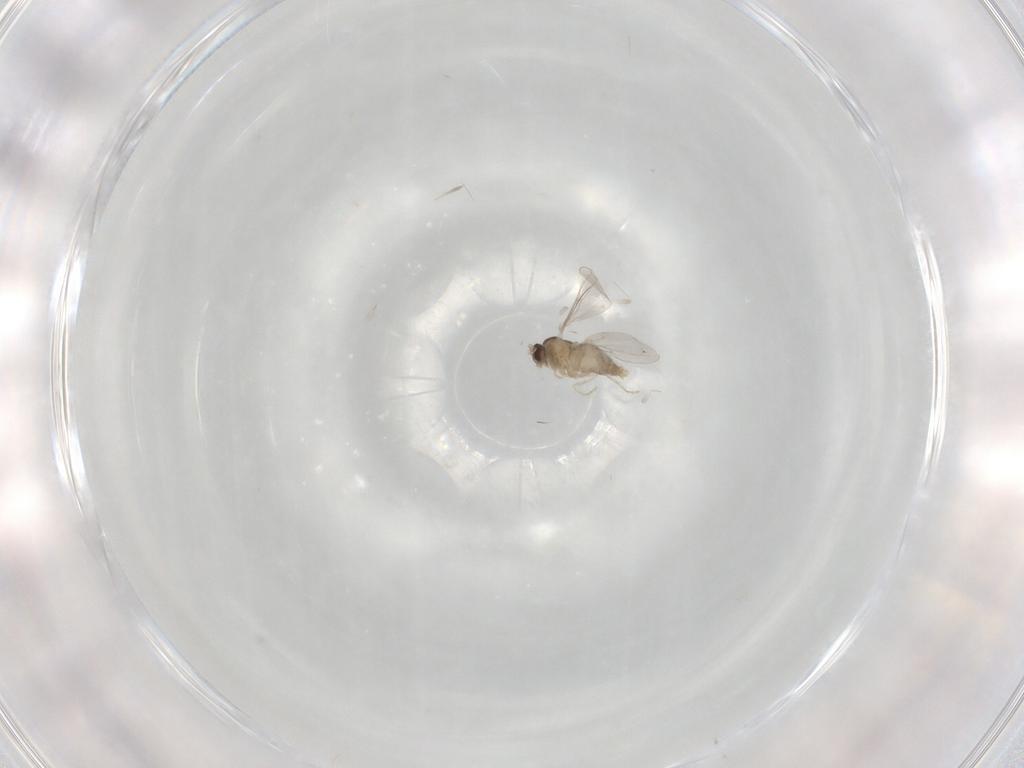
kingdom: Animalia
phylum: Arthropoda
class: Insecta
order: Diptera
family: Cecidomyiidae
